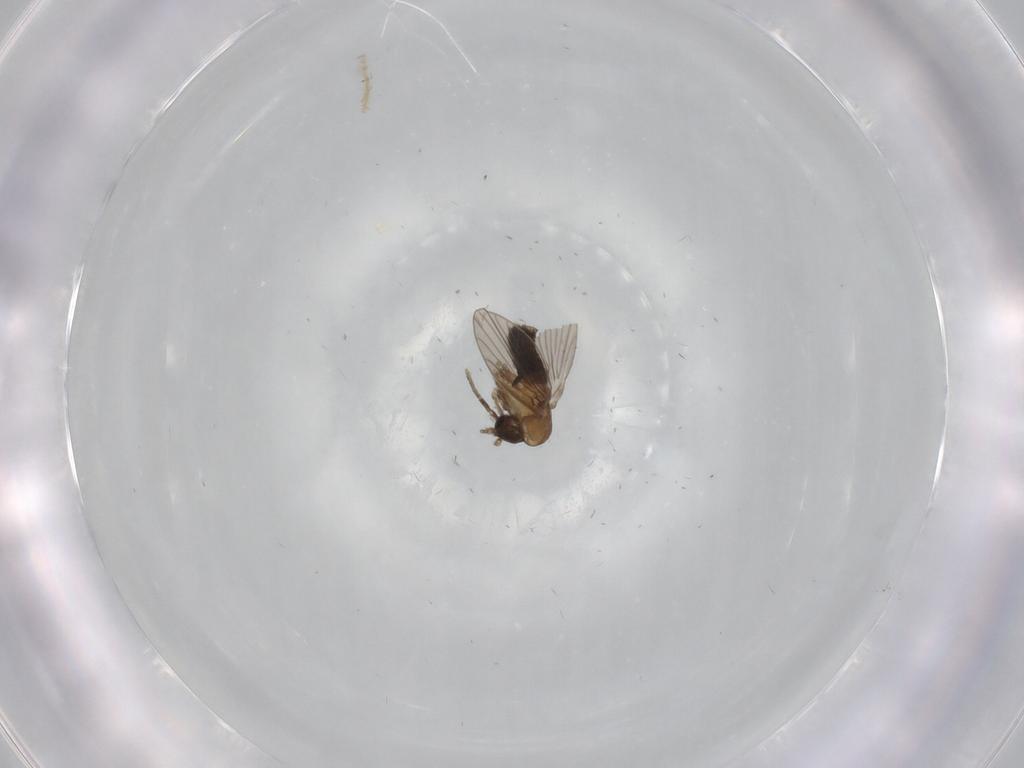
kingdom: Animalia
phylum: Arthropoda
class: Insecta
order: Diptera
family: Psychodidae
